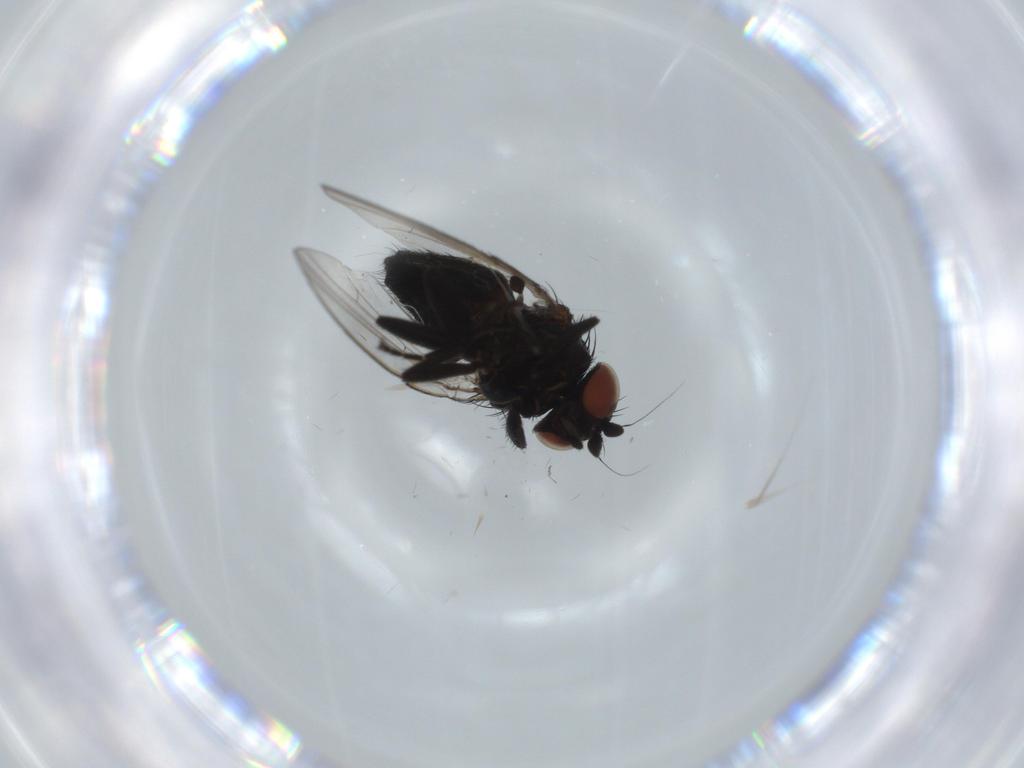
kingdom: Animalia
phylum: Arthropoda
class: Insecta
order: Diptera
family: Milichiidae
